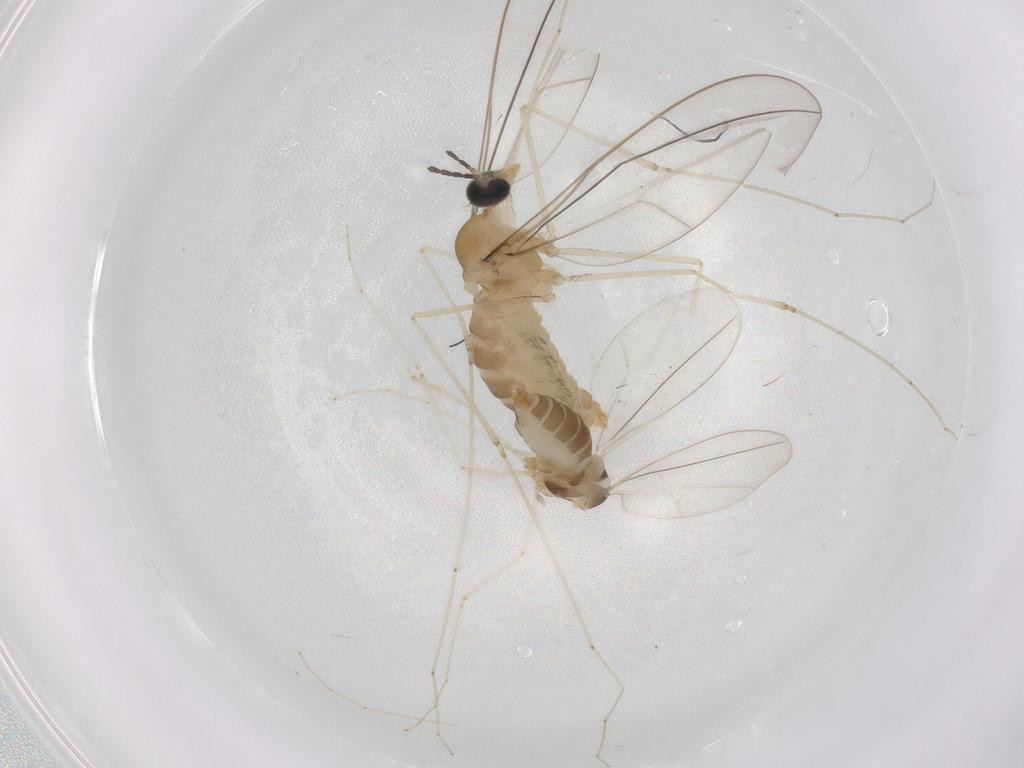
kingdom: Animalia
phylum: Arthropoda
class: Insecta
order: Diptera
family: Cecidomyiidae
